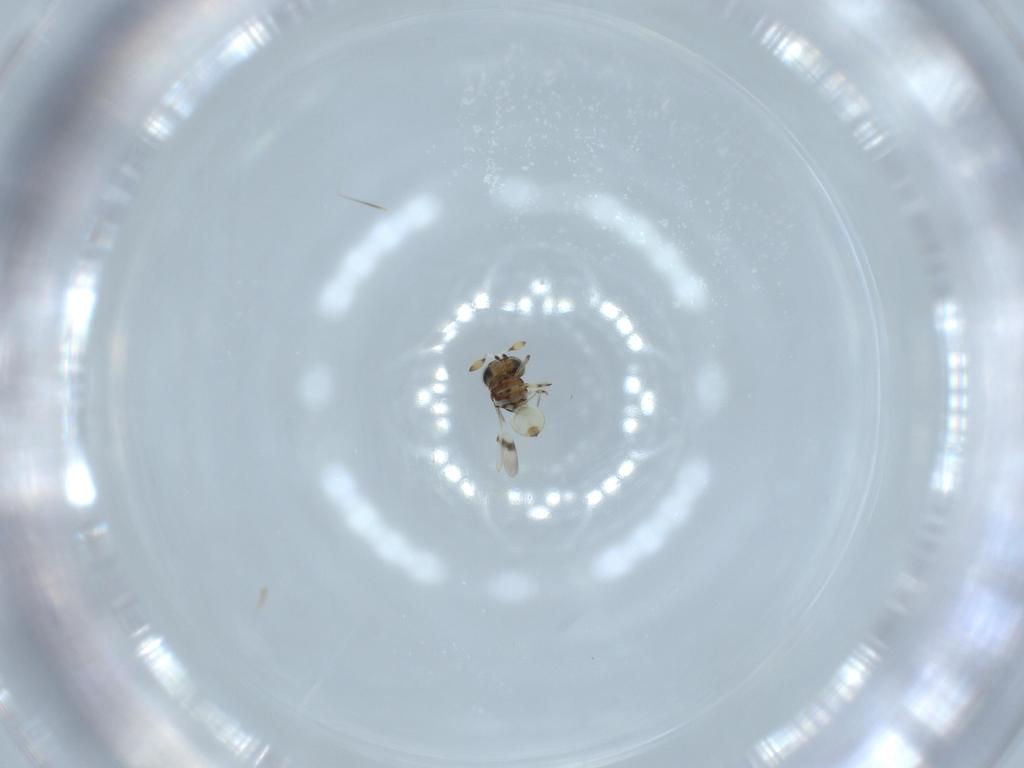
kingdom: Animalia
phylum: Arthropoda
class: Insecta
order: Hymenoptera
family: Scelionidae
